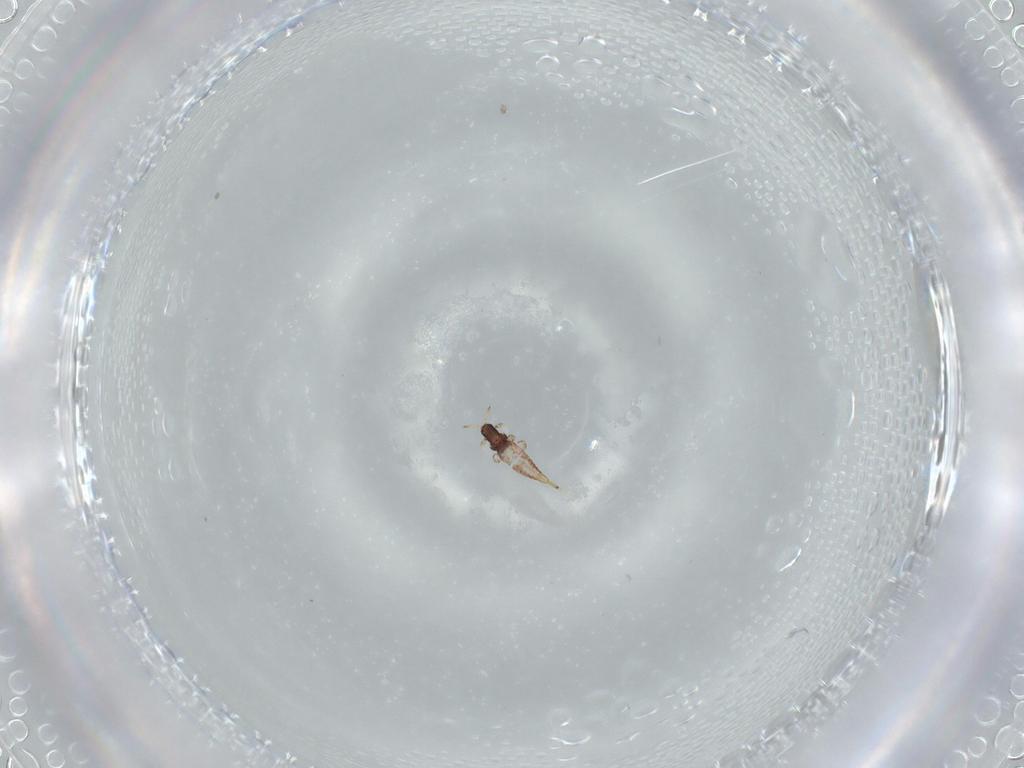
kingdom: Animalia
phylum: Arthropoda
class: Insecta
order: Thysanoptera
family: Phlaeothripidae
